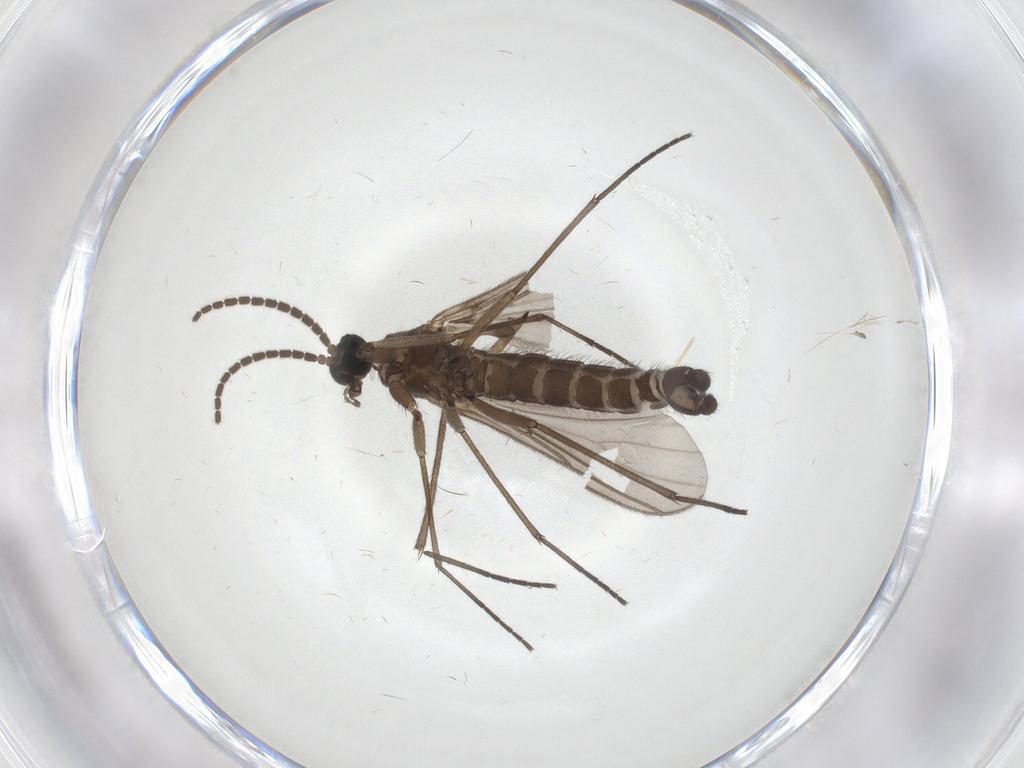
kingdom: Animalia
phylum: Arthropoda
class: Insecta
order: Diptera
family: Sciaridae
